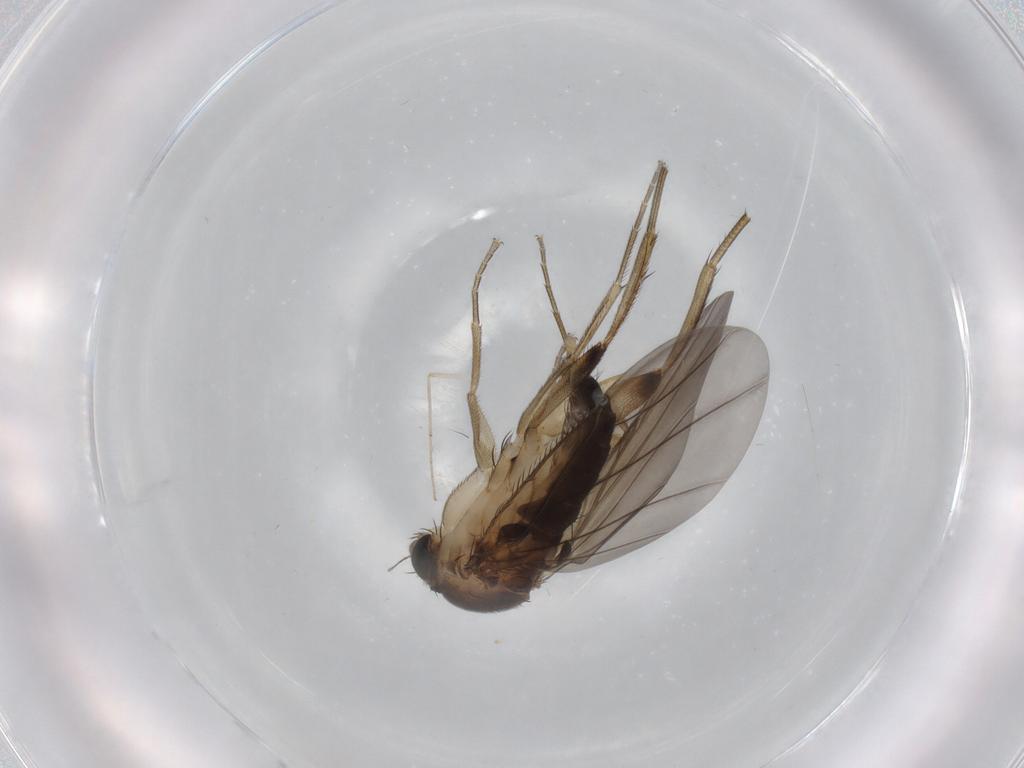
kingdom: Animalia
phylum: Arthropoda
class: Insecta
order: Diptera
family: Phoridae
